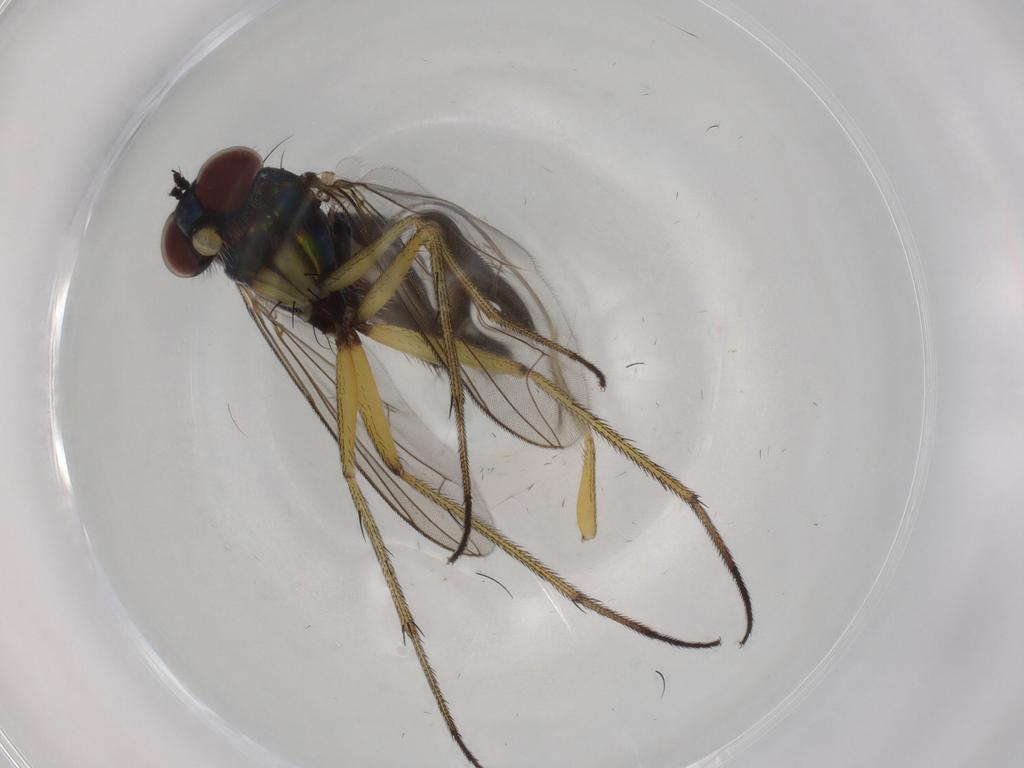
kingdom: Animalia
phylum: Arthropoda
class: Insecta
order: Diptera
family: Dolichopodidae
